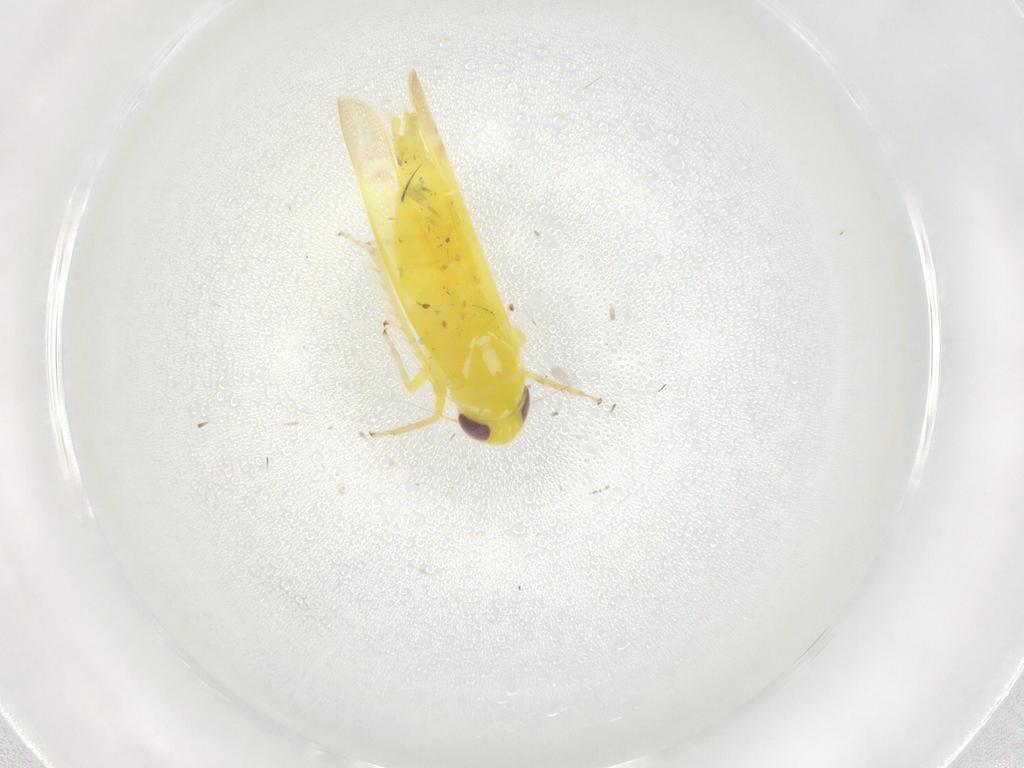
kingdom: Animalia
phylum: Arthropoda
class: Insecta
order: Hemiptera
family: Cicadellidae
